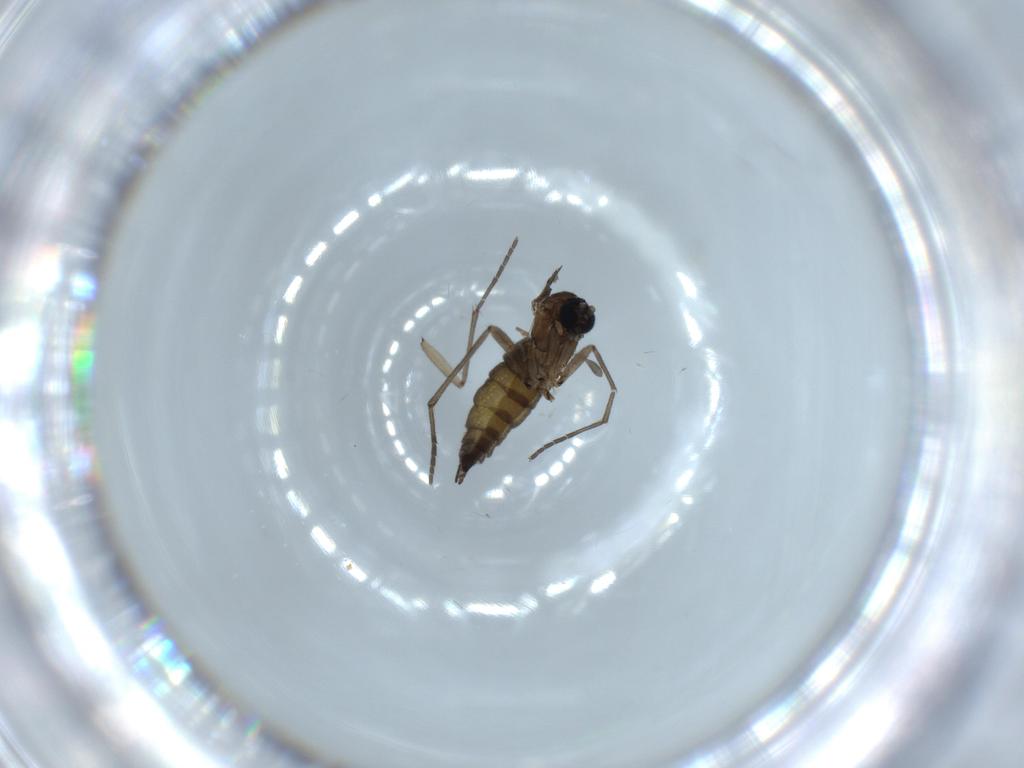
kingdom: Animalia
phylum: Arthropoda
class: Insecta
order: Diptera
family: Sciaridae
